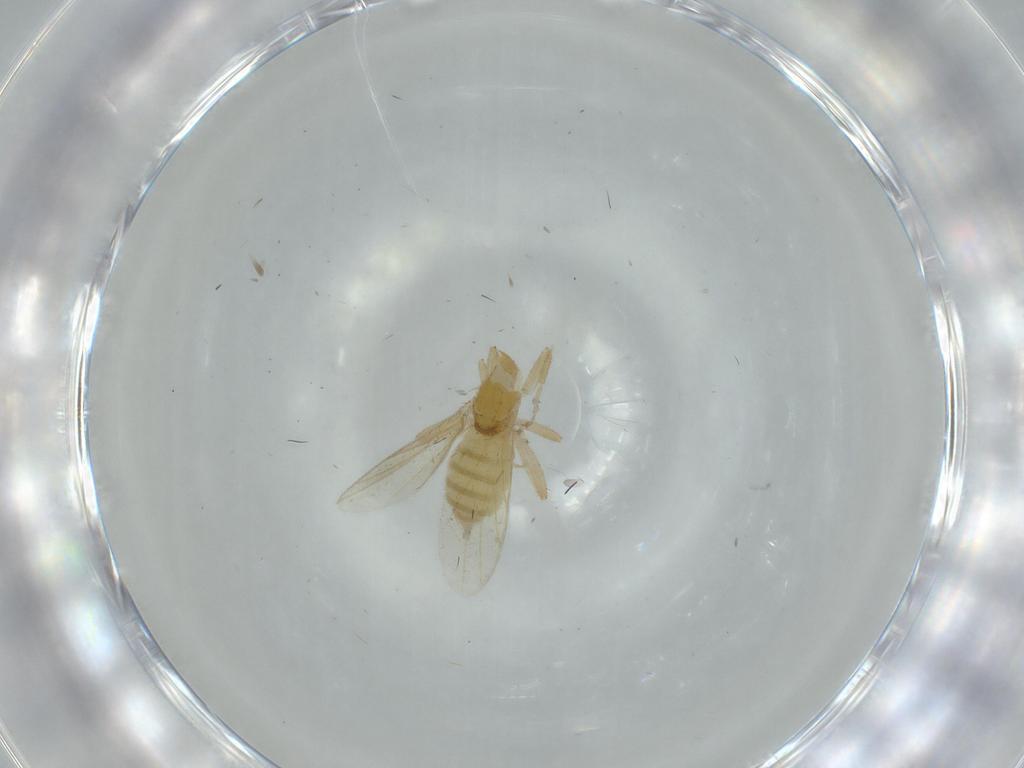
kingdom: Animalia
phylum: Arthropoda
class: Insecta
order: Diptera
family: Hybotidae
